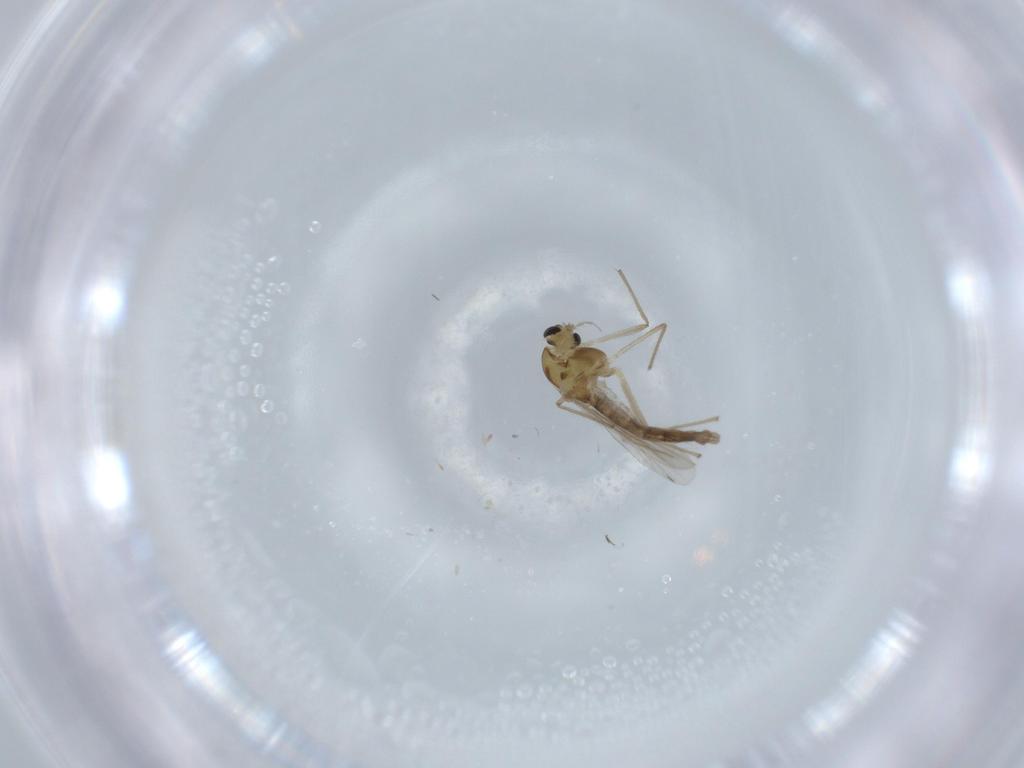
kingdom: Animalia
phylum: Arthropoda
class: Insecta
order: Diptera
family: Chironomidae
